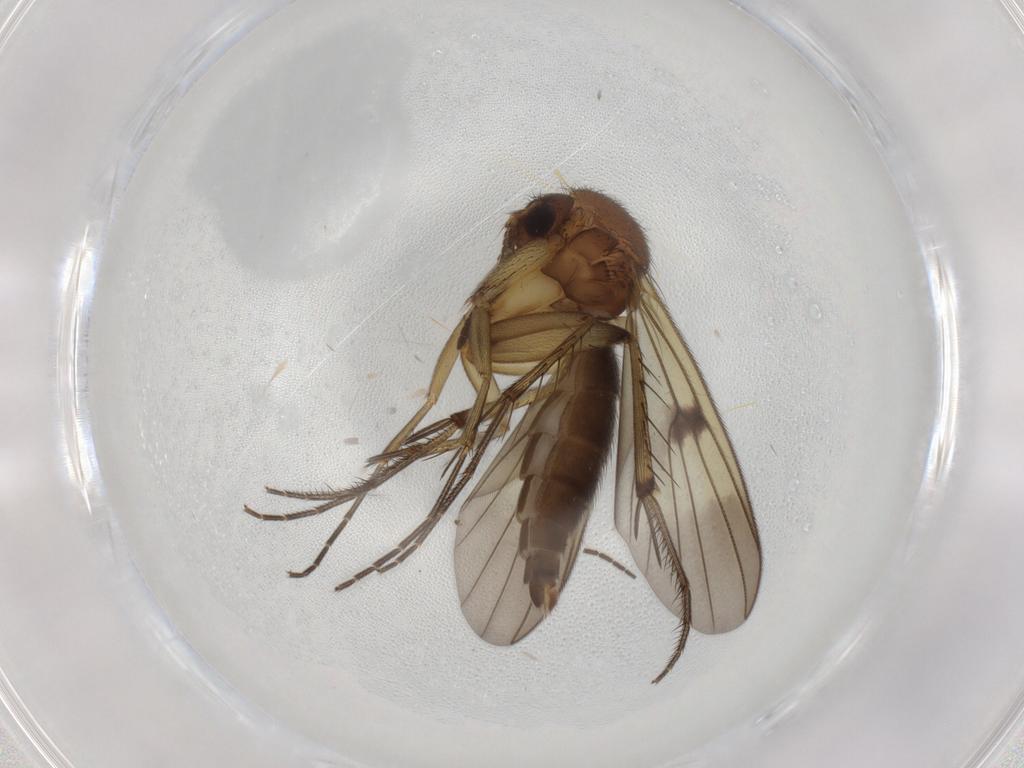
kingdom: Animalia
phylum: Arthropoda
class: Insecta
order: Diptera
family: Mycetophilidae
